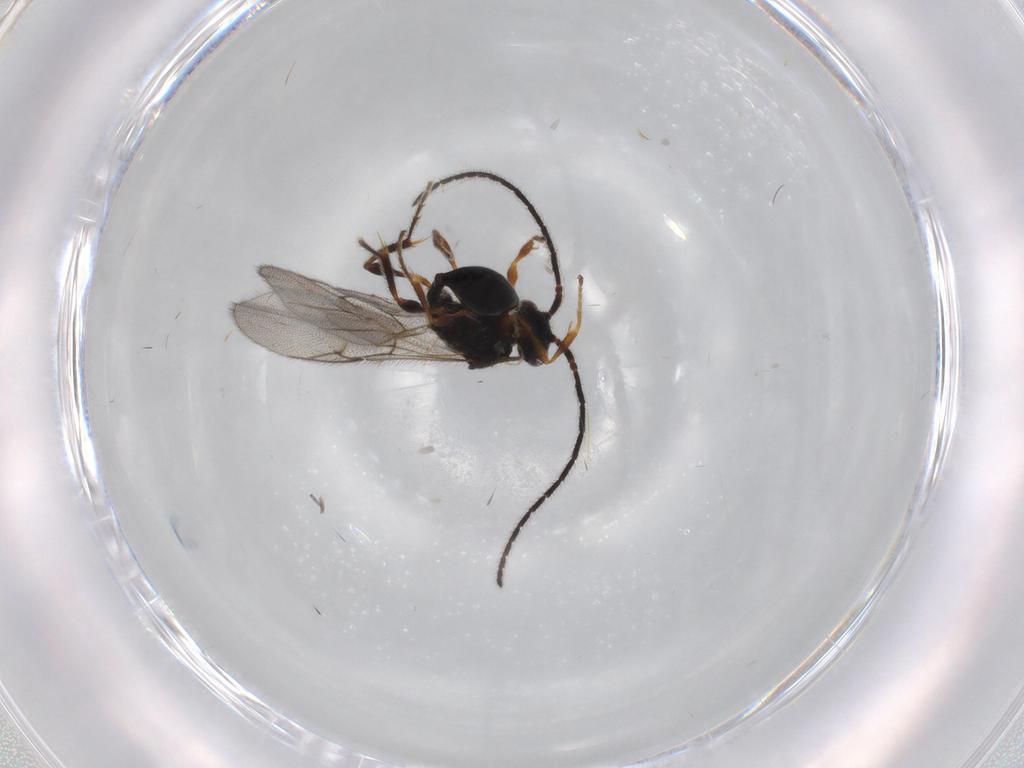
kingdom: Animalia
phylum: Arthropoda
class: Insecta
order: Hymenoptera
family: Diapriidae
